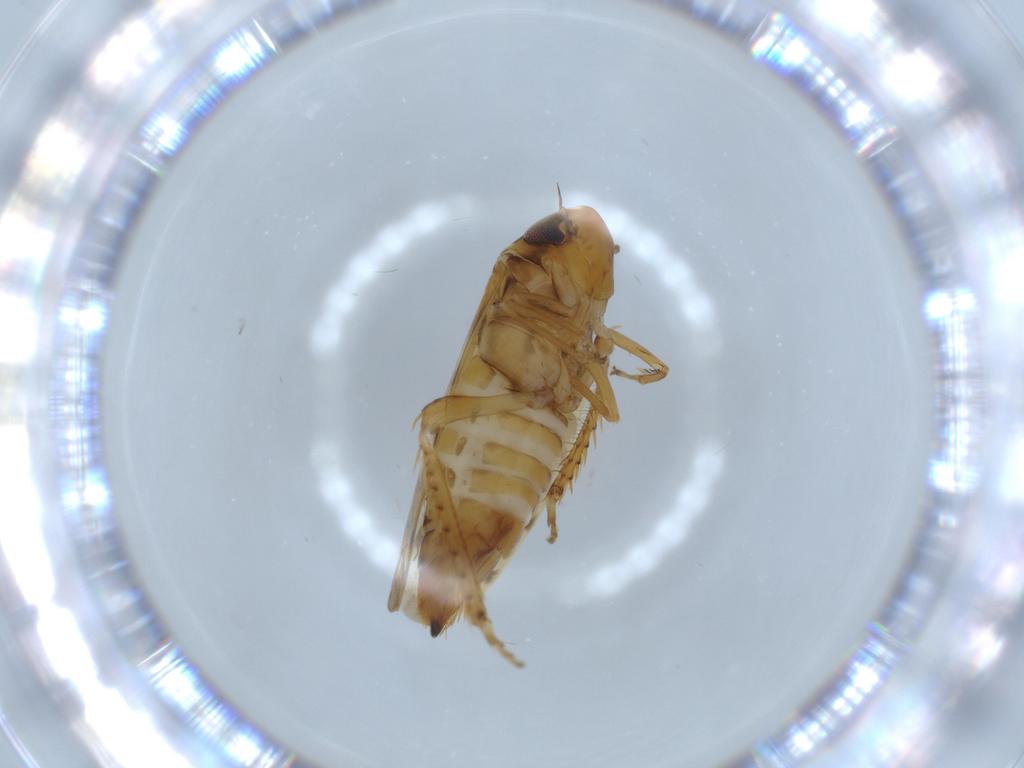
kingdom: Animalia
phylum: Arthropoda
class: Insecta
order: Hemiptera
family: Cicadellidae
